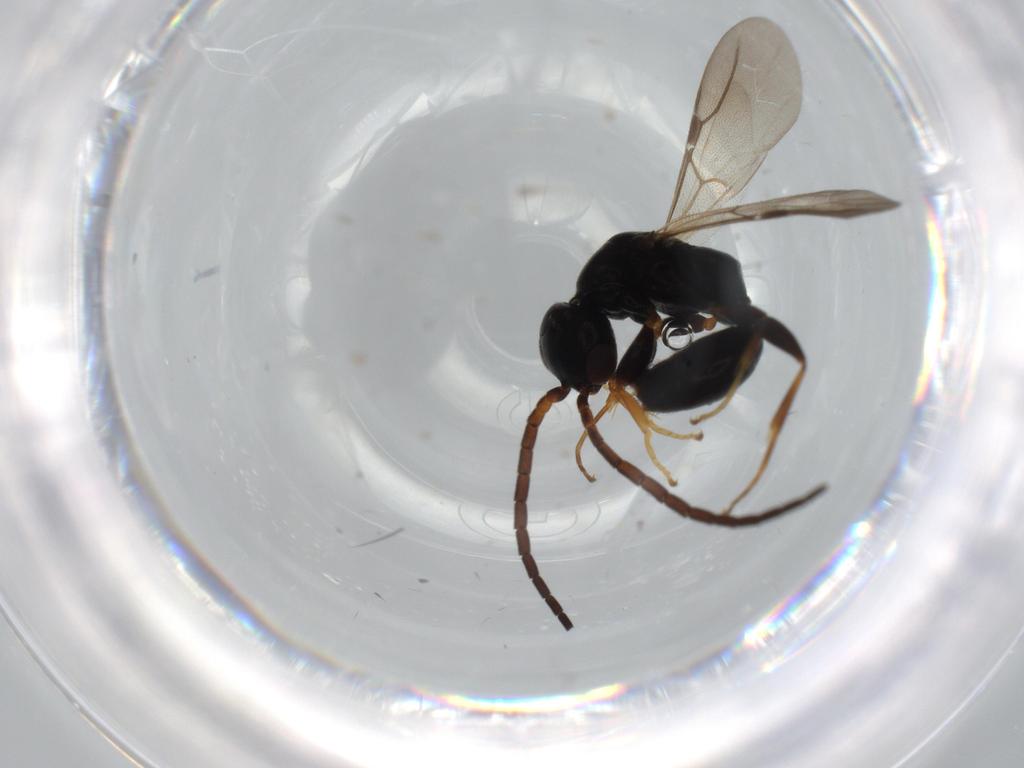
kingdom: Animalia
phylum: Arthropoda
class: Insecta
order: Hymenoptera
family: Bethylidae
